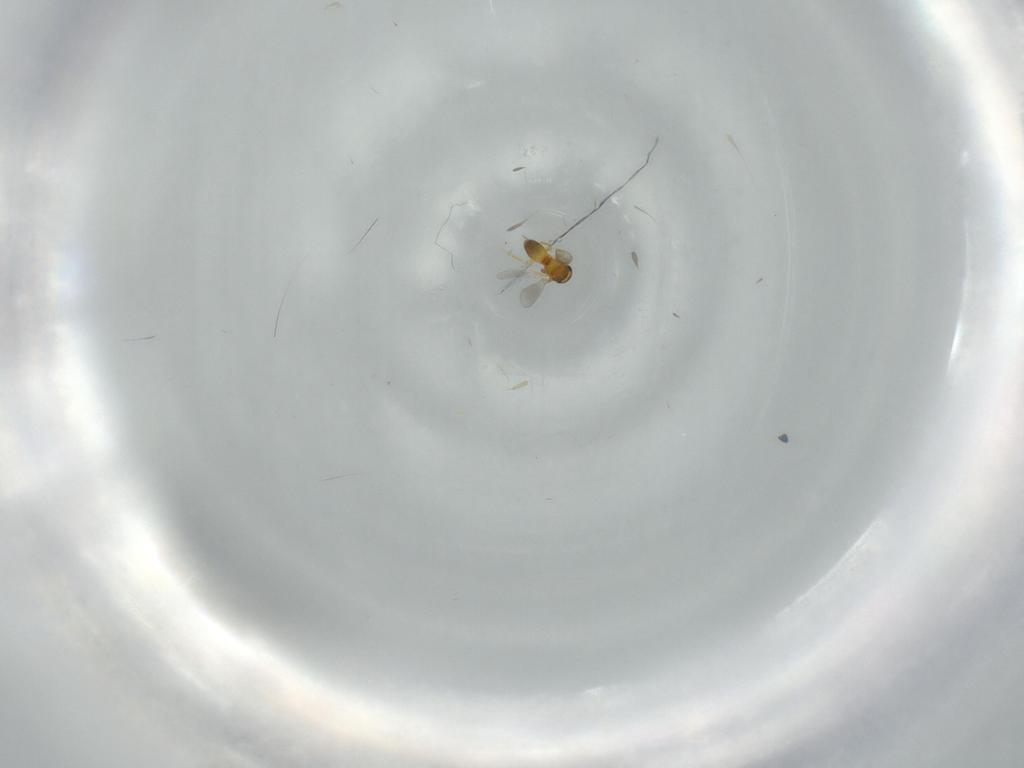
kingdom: Animalia
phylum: Arthropoda
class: Insecta
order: Hymenoptera
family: Platygastridae
